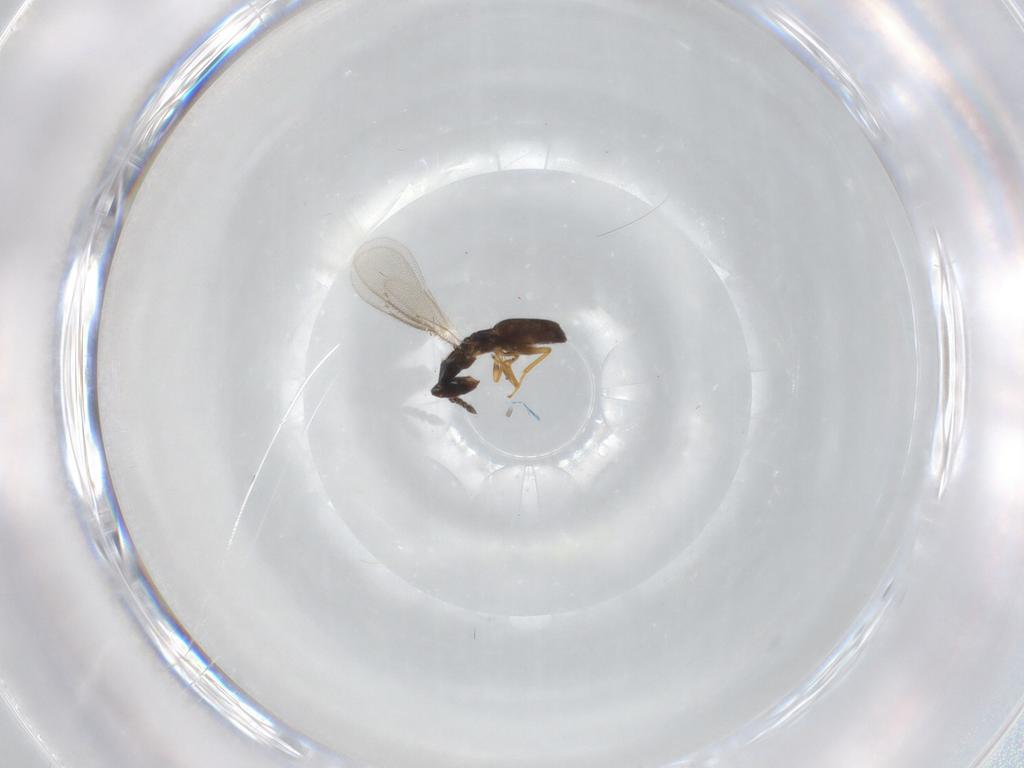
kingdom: Animalia
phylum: Arthropoda
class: Insecta
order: Hymenoptera
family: Eulophidae
